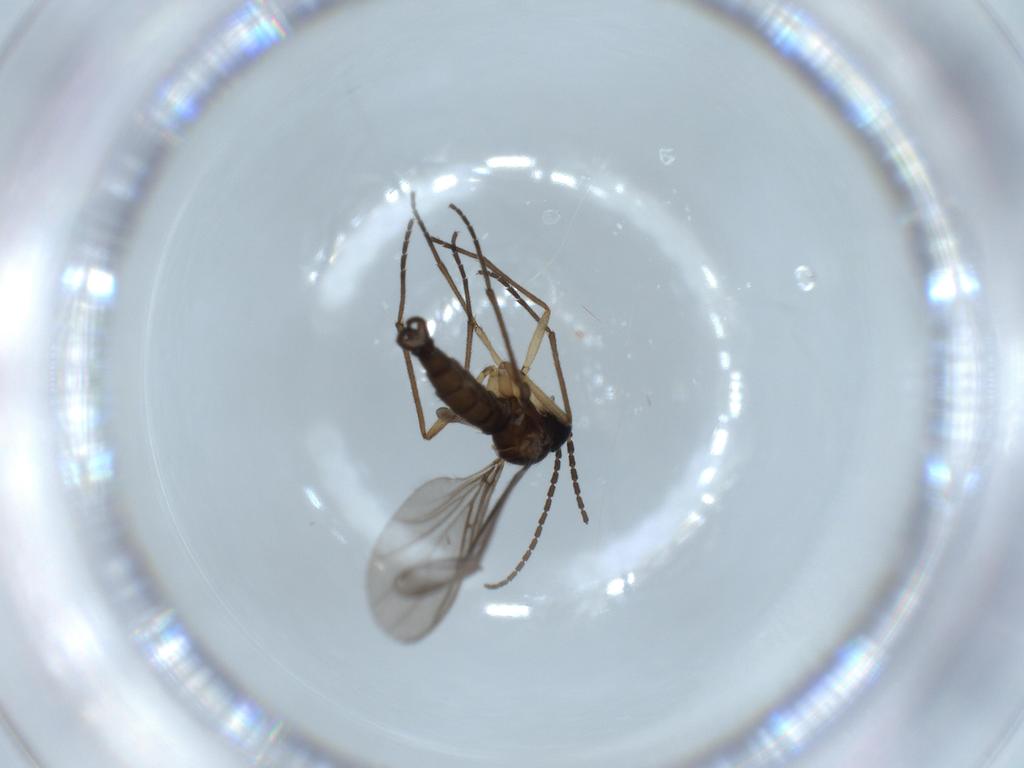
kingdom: Animalia
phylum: Arthropoda
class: Insecta
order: Diptera
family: Sciaridae
